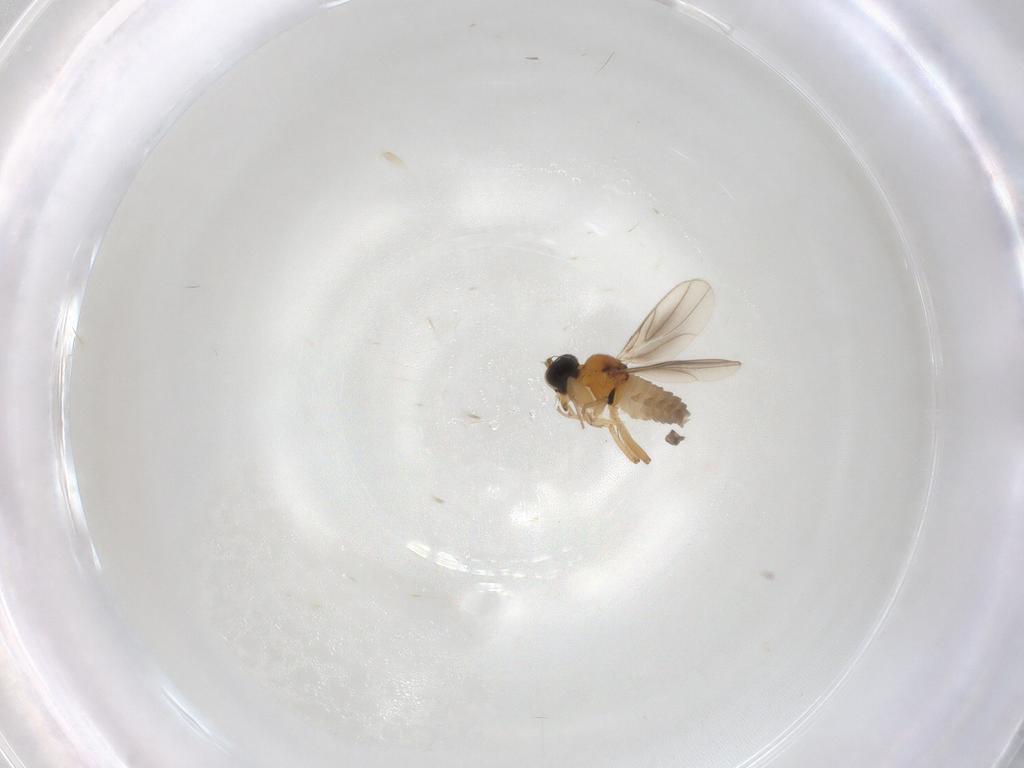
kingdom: Animalia
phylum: Arthropoda
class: Insecta
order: Diptera
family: Hybotidae
